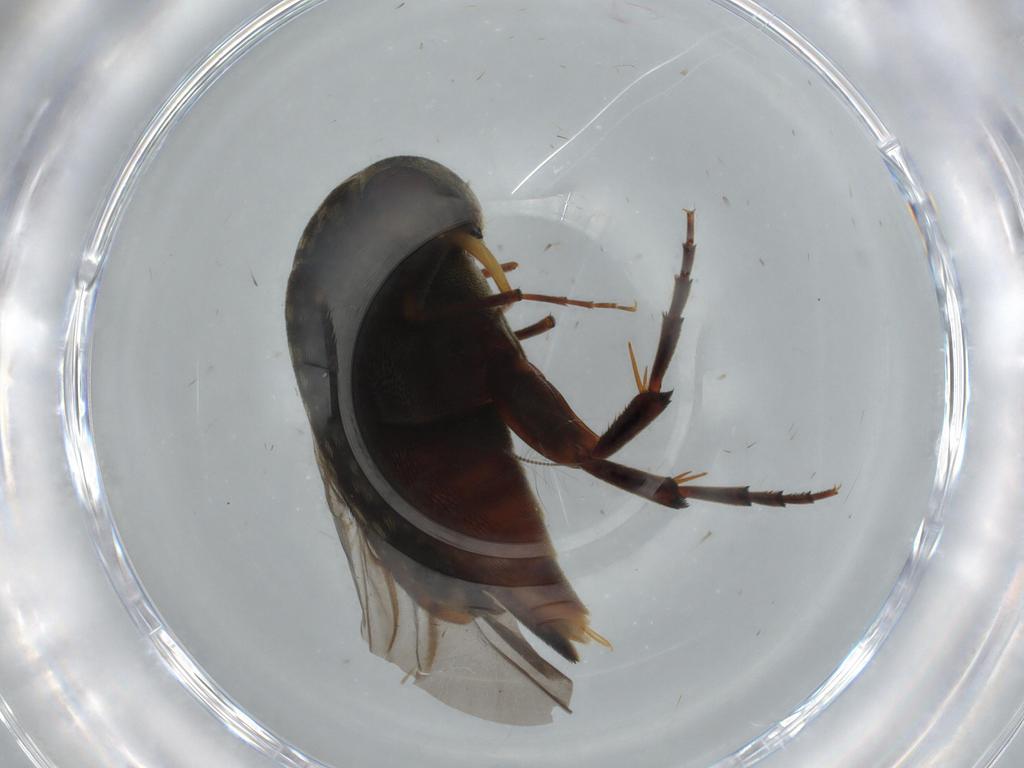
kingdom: Animalia
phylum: Arthropoda
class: Insecta
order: Coleoptera
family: Mordellidae
